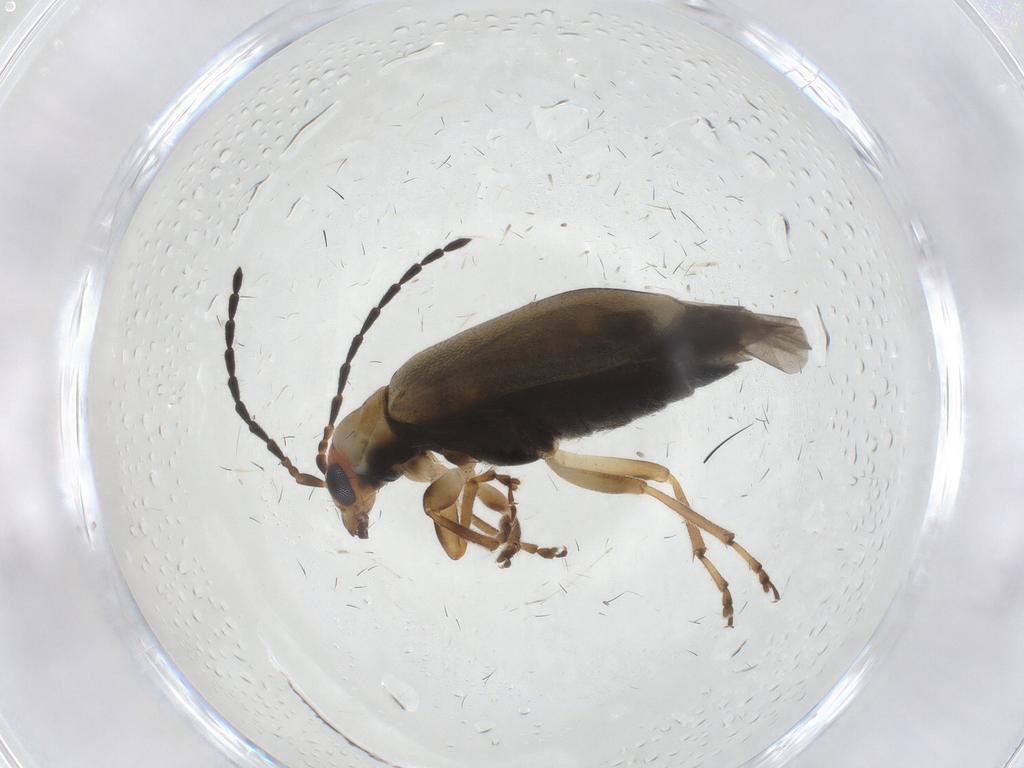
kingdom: Animalia
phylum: Arthropoda
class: Insecta
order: Coleoptera
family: Chrysomelidae
